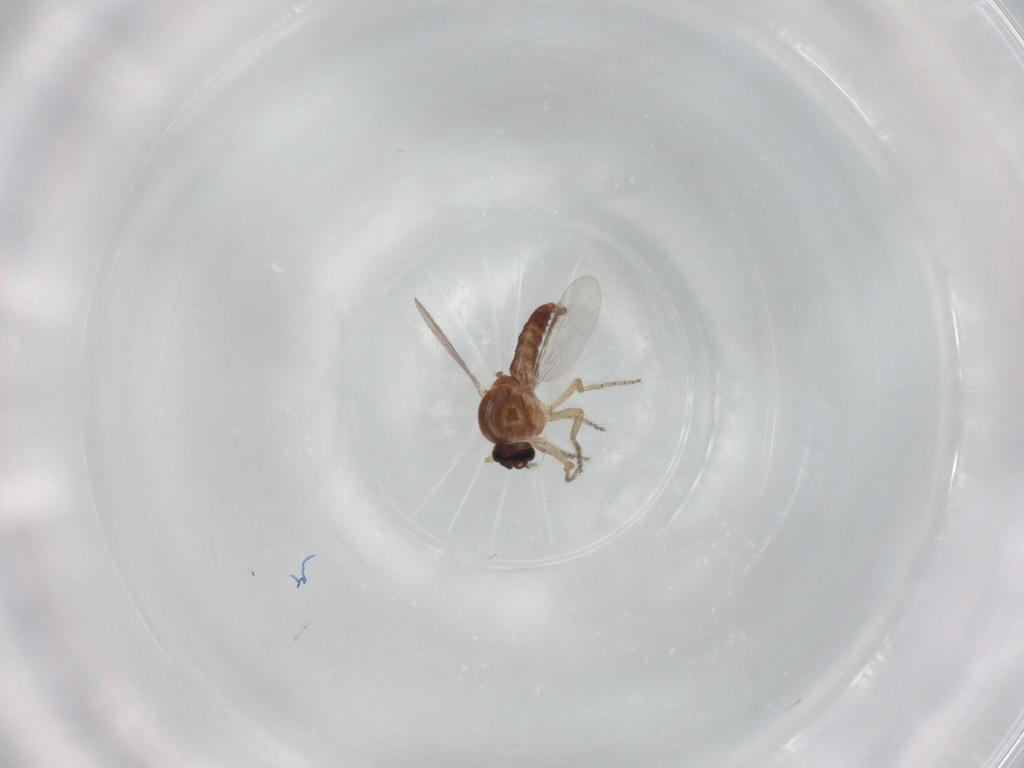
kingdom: Animalia
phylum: Arthropoda
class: Insecta
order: Diptera
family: Ceratopogonidae
